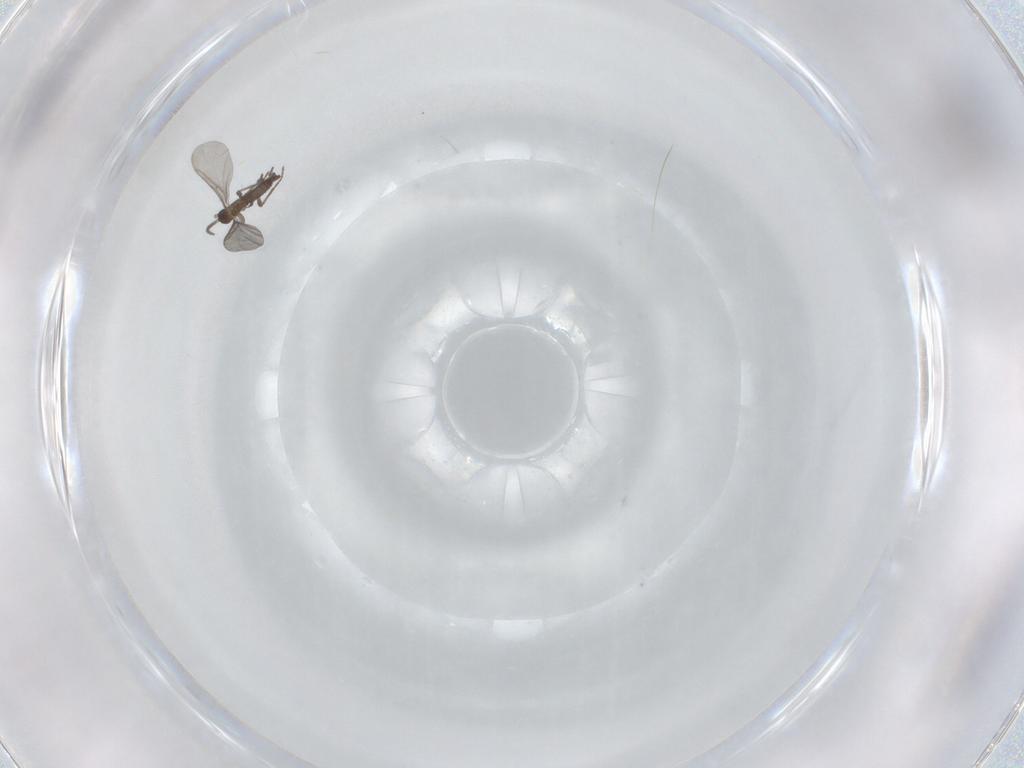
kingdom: Animalia
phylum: Arthropoda
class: Insecta
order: Diptera
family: Sciaridae
